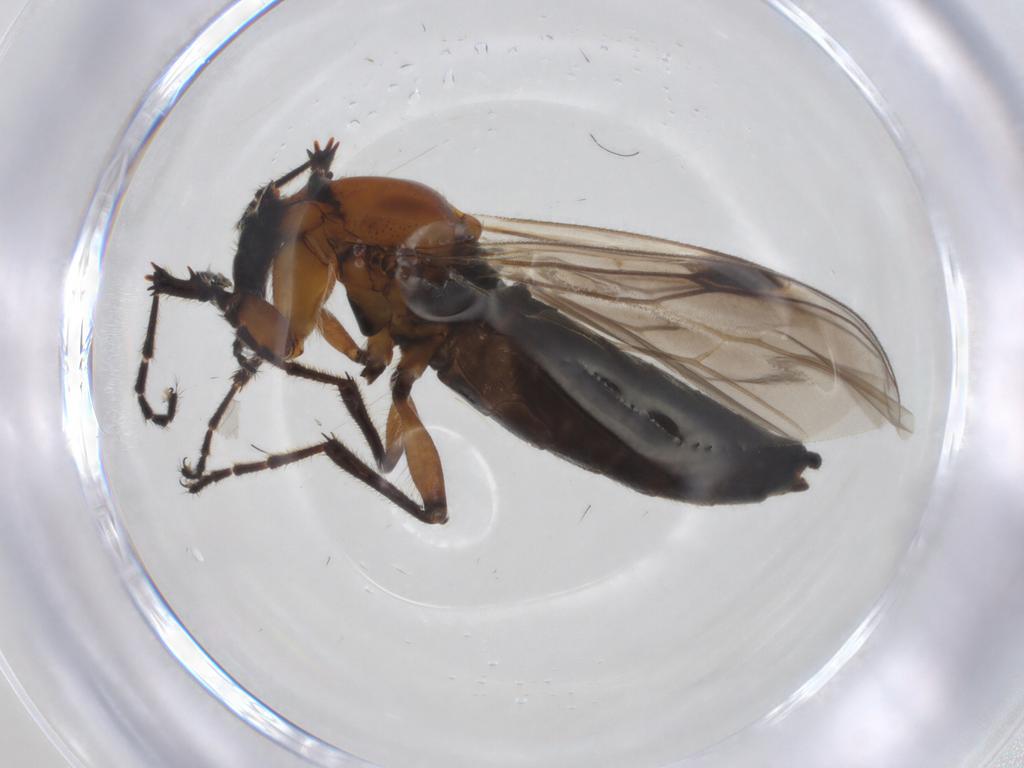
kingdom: Animalia
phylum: Arthropoda
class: Insecta
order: Diptera
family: Bibionidae
